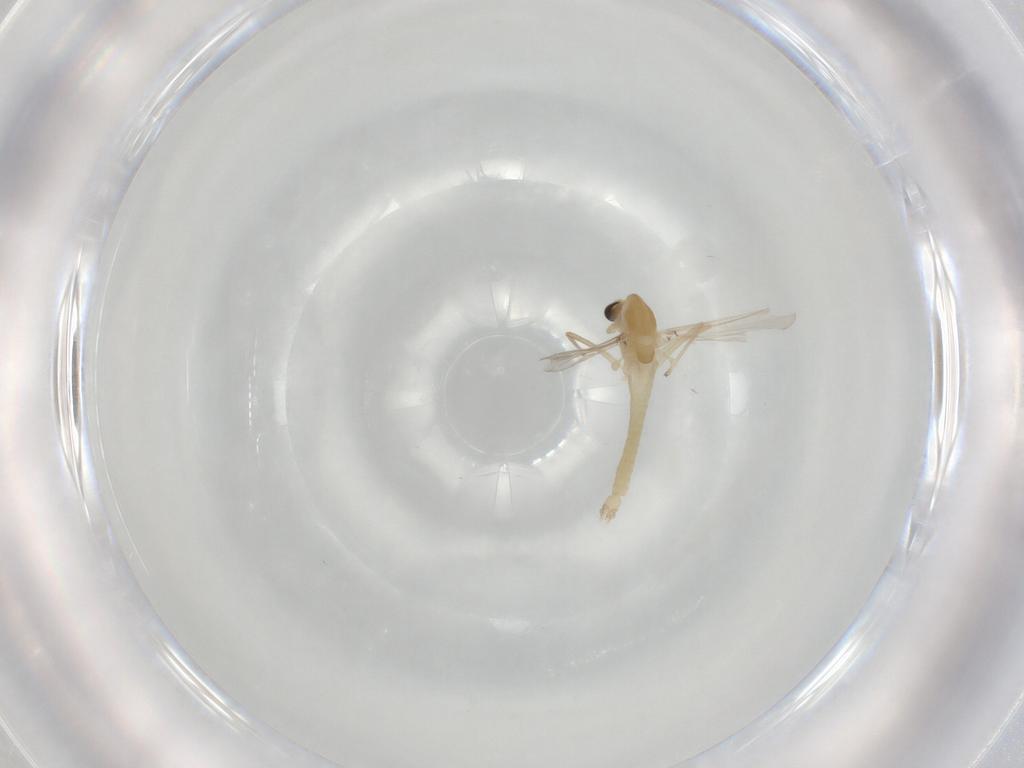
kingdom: Animalia
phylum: Arthropoda
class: Insecta
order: Diptera
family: Chironomidae
